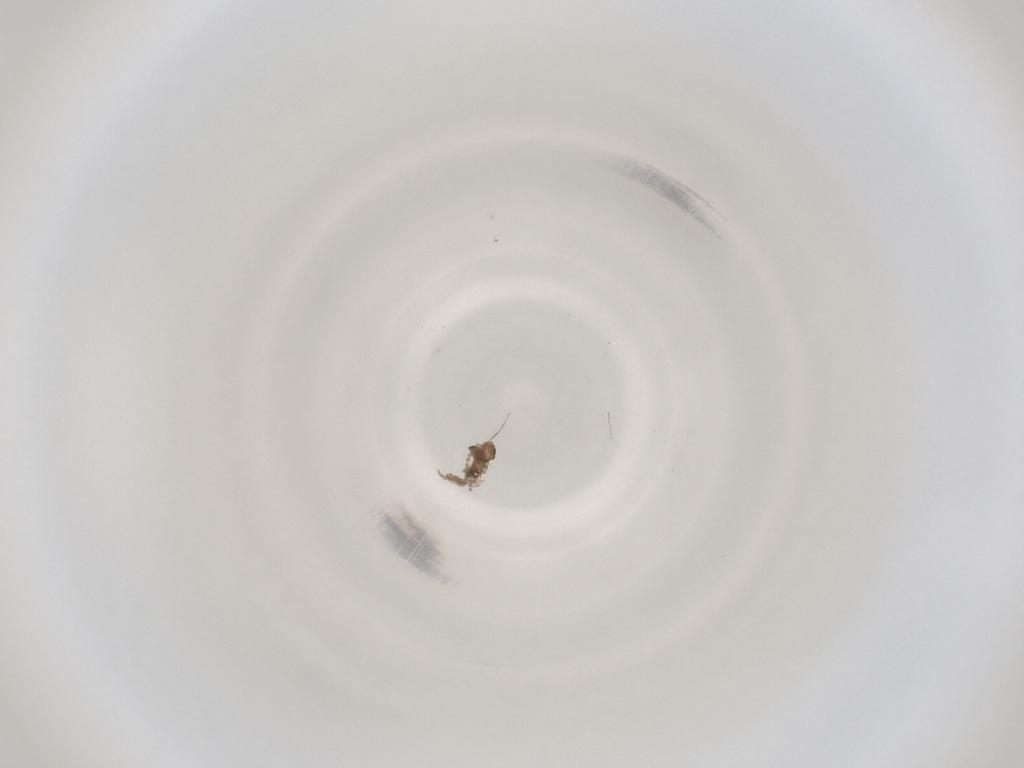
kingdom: Animalia
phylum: Arthropoda
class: Insecta
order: Diptera
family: Cecidomyiidae
